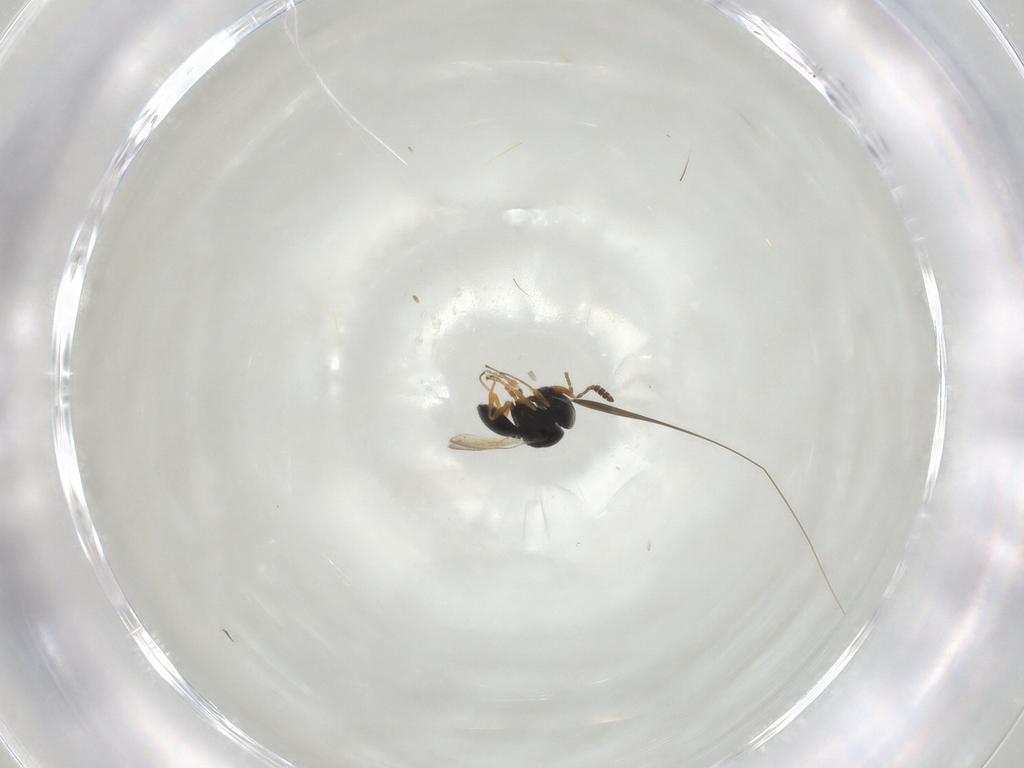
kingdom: Animalia
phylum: Arthropoda
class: Insecta
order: Hymenoptera
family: Scelionidae
